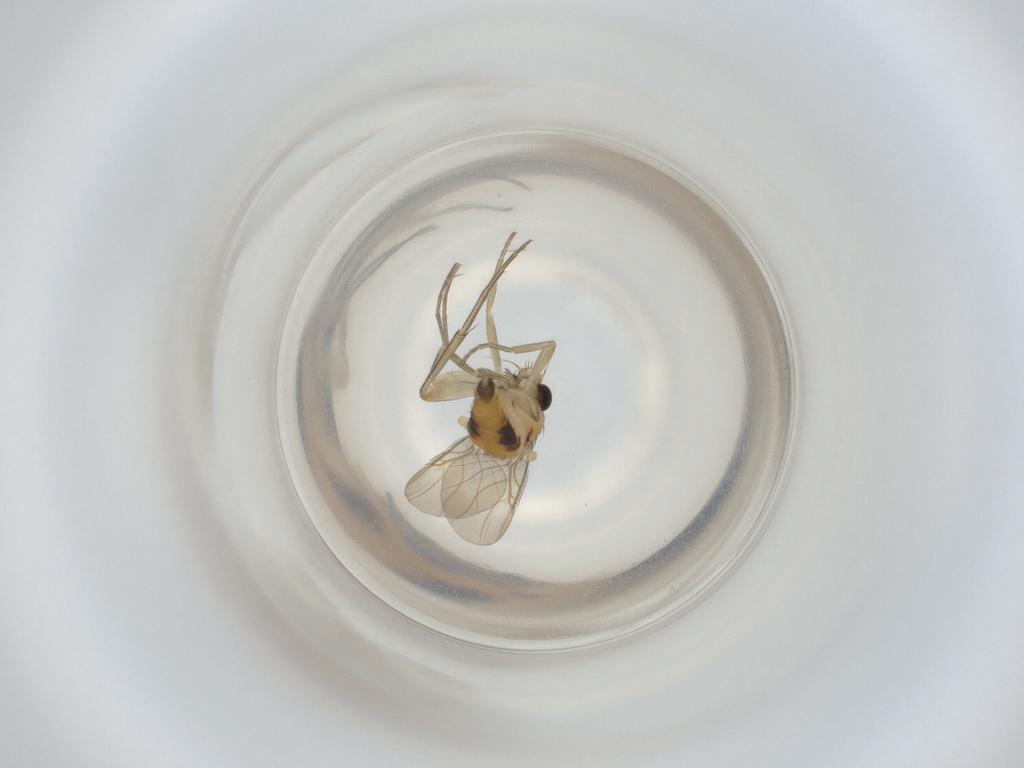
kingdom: Animalia
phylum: Arthropoda
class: Insecta
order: Diptera
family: Phoridae
